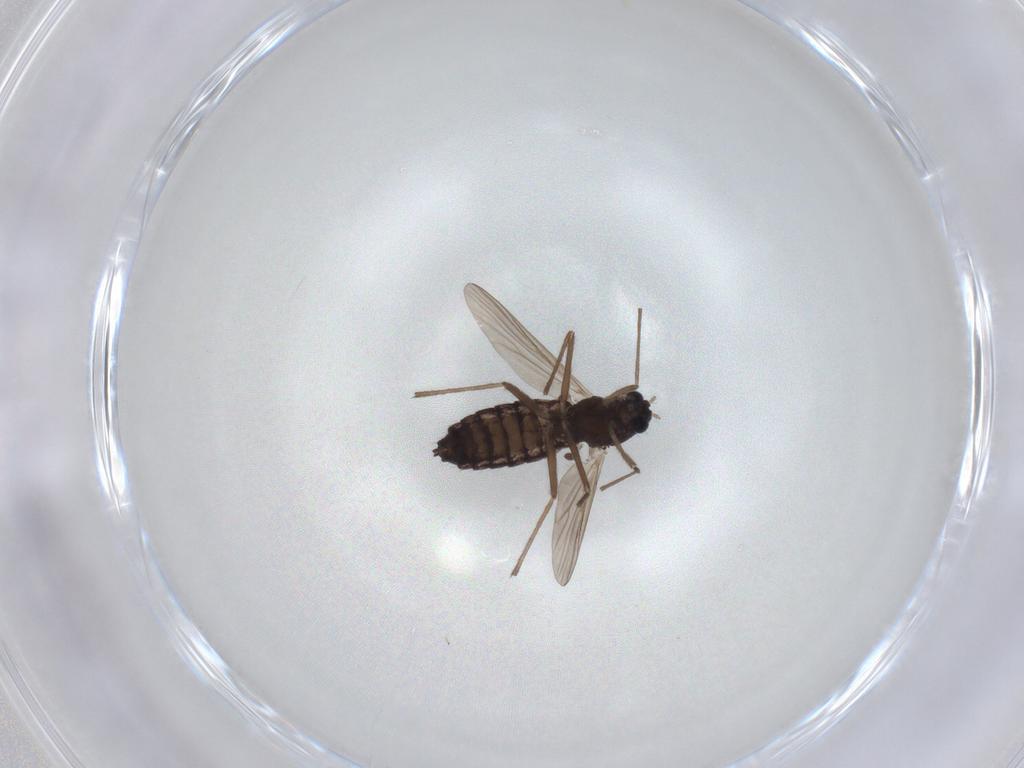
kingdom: Animalia
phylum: Arthropoda
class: Insecta
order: Diptera
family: Chironomidae
